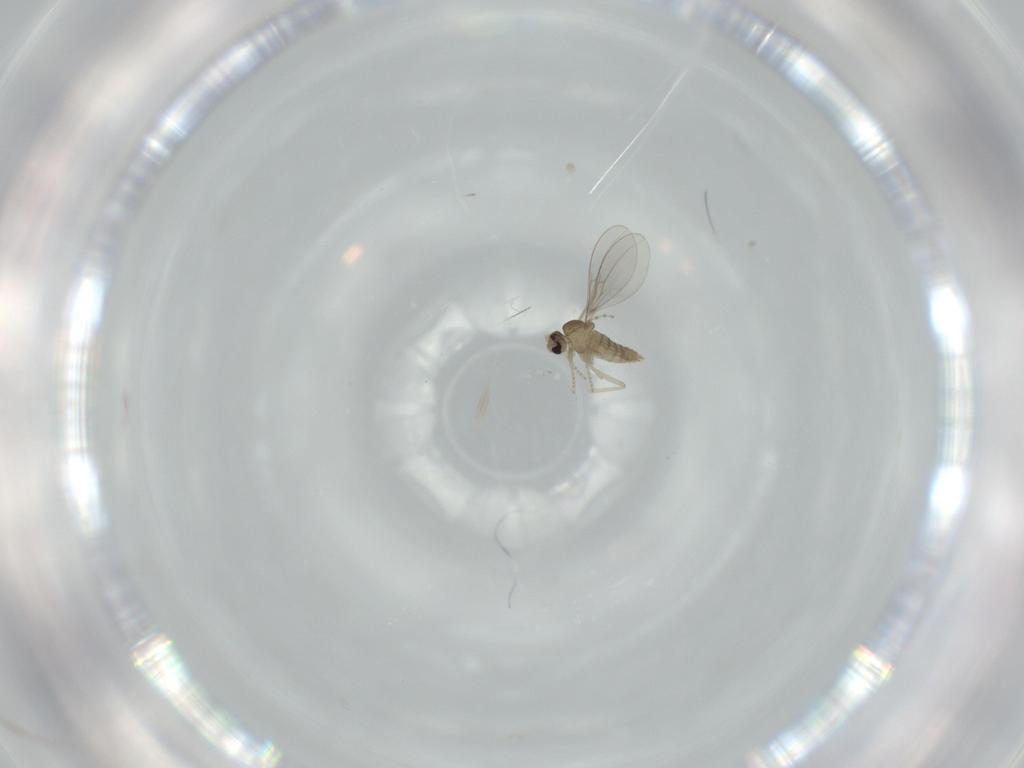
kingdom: Animalia
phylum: Arthropoda
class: Insecta
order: Diptera
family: Cecidomyiidae
